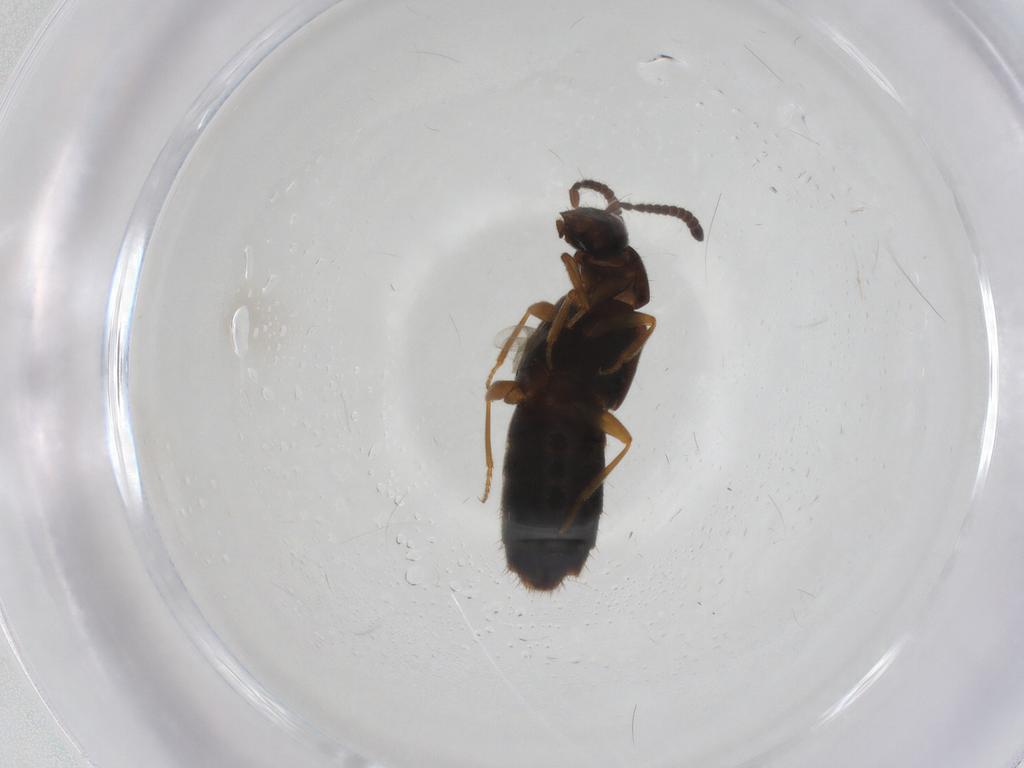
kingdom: Animalia
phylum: Arthropoda
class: Insecta
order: Coleoptera
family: Staphylinidae
